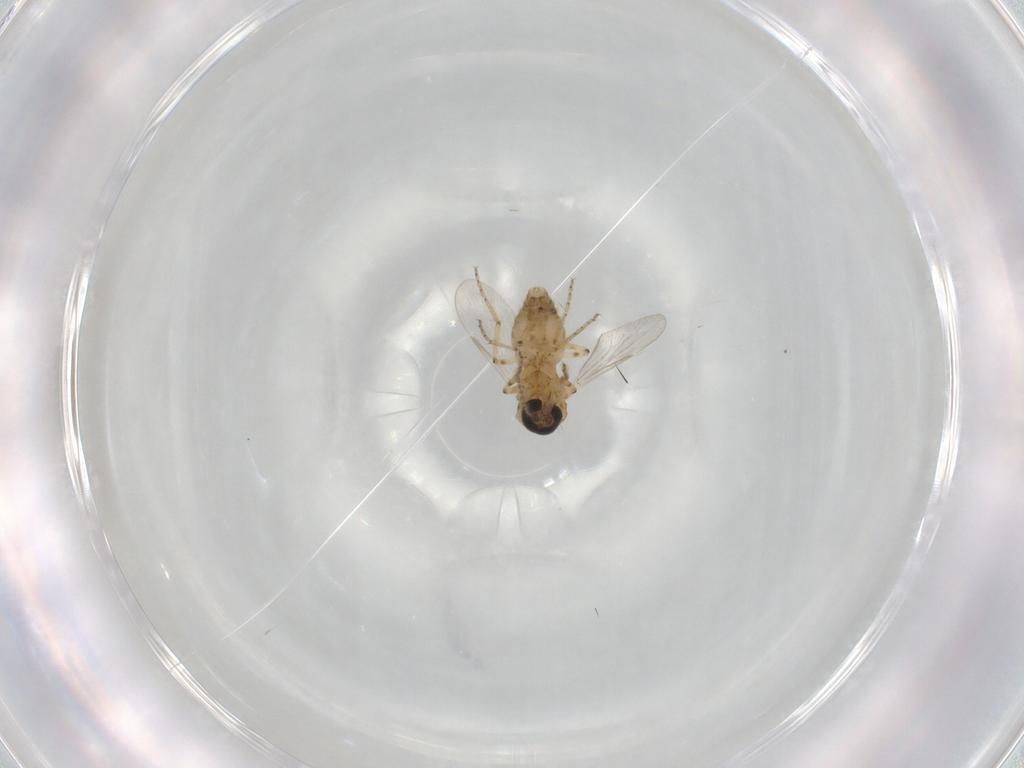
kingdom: Animalia
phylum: Arthropoda
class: Insecta
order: Diptera
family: Ceratopogonidae
